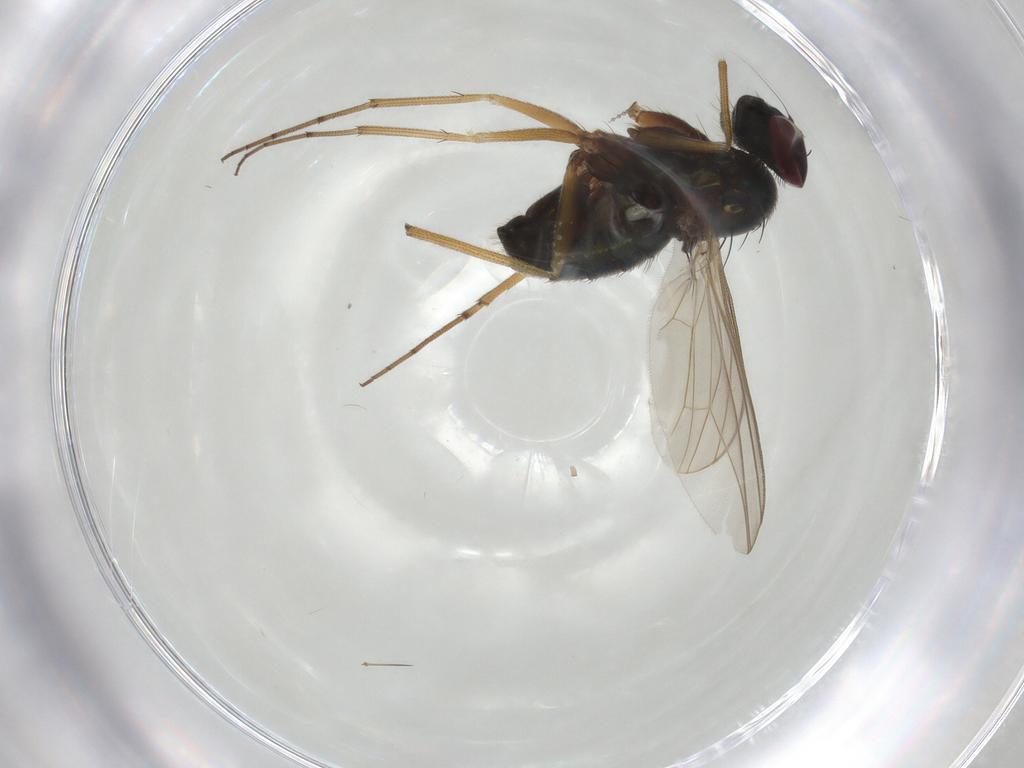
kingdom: Animalia
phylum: Arthropoda
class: Insecta
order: Diptera
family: Dolichopodidae
